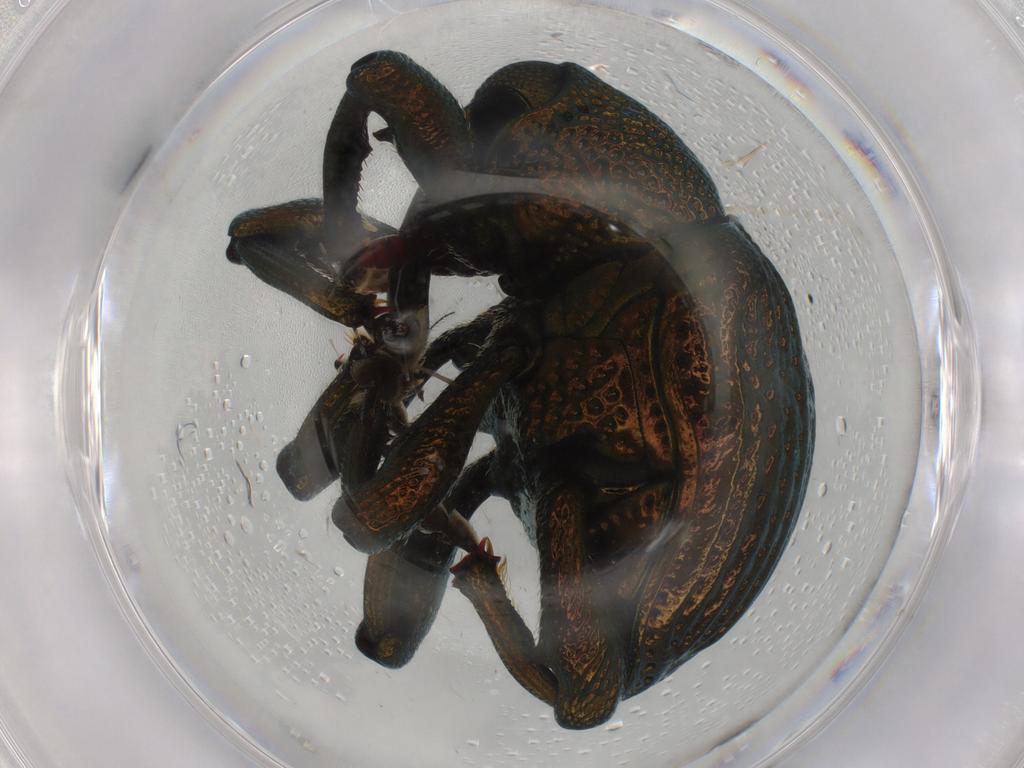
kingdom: Animalia
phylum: Arthropoda
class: Insecta
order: Coleoptera
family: Curculionidae
